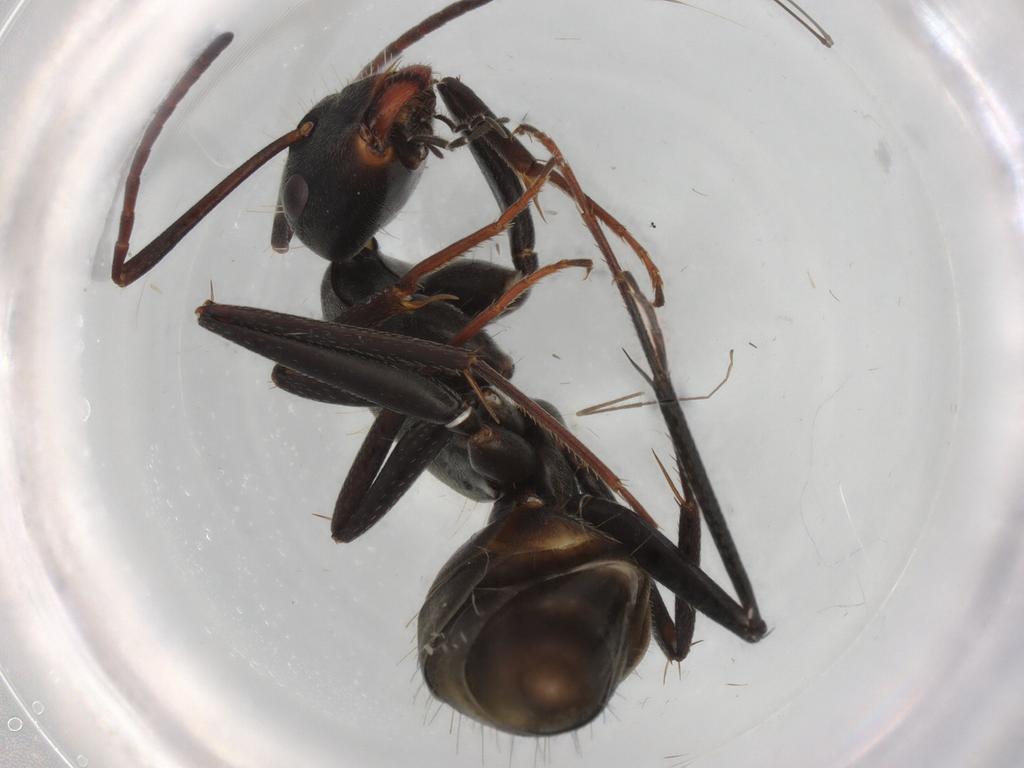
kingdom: Animalia
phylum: Arthropoda
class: Insecta
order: Hymenoptera
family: Formicidae
